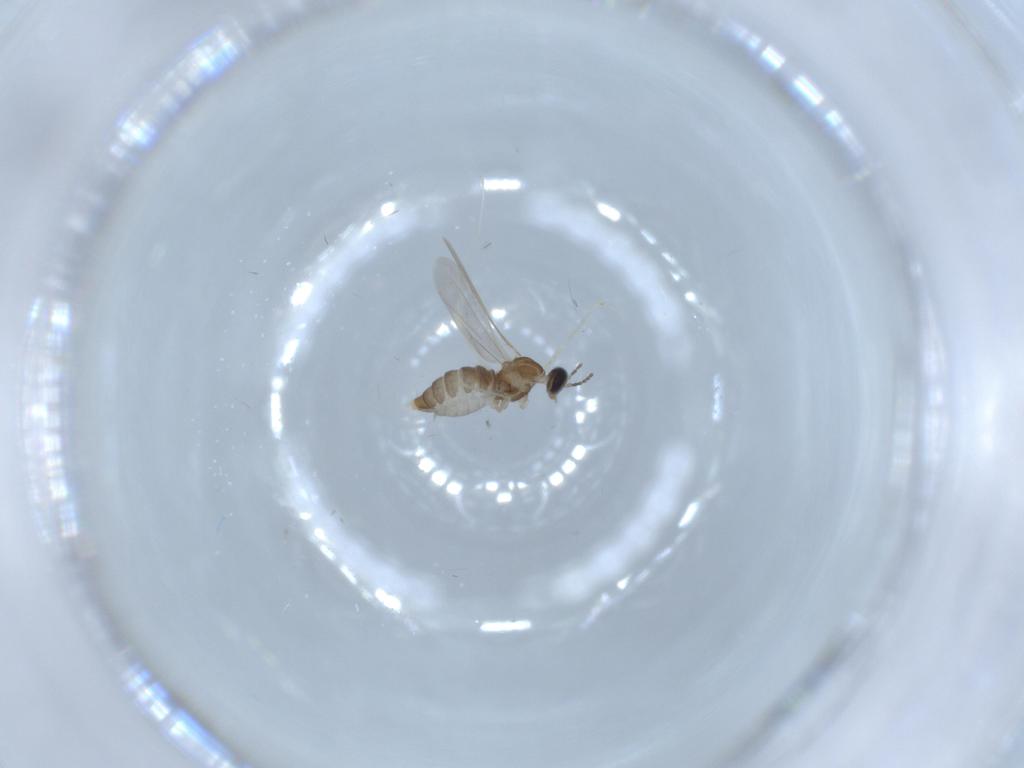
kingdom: Animalia
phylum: Arthropoda
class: Insecta
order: Diptera
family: Cecidomyiidae
